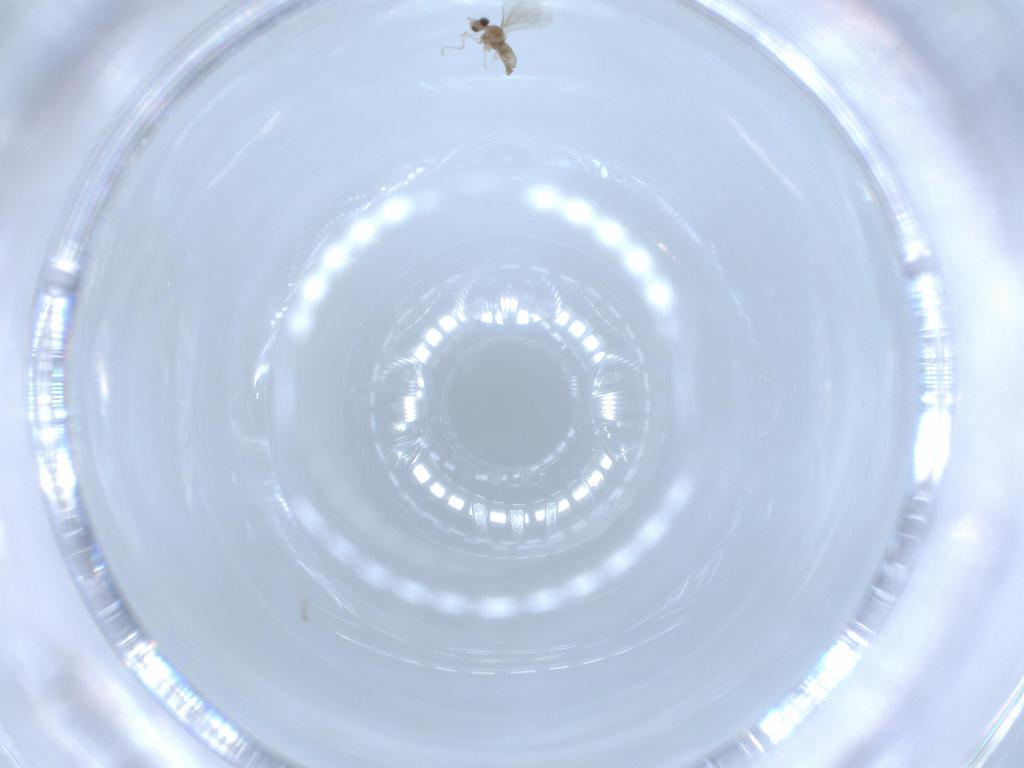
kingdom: Animalia
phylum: Arthropoda
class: Insecta
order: Diptera
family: Cecidomyiidae
